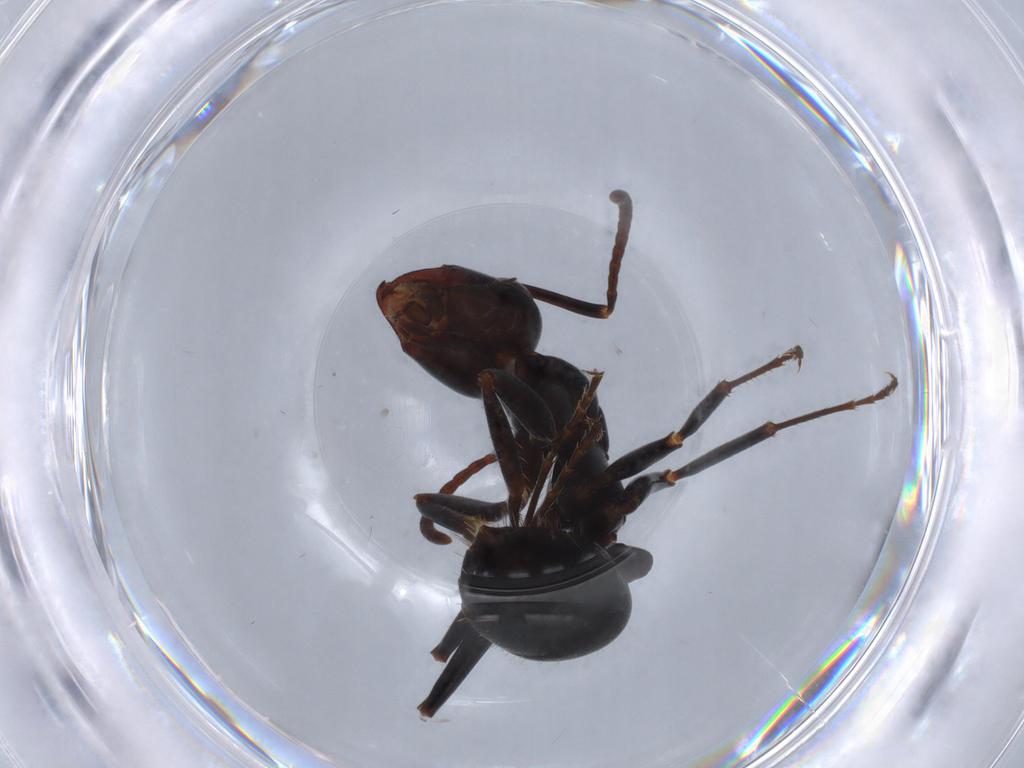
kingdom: Animalia
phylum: Arthropoda
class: Insecta
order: Hymenoptera
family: Formicidae
